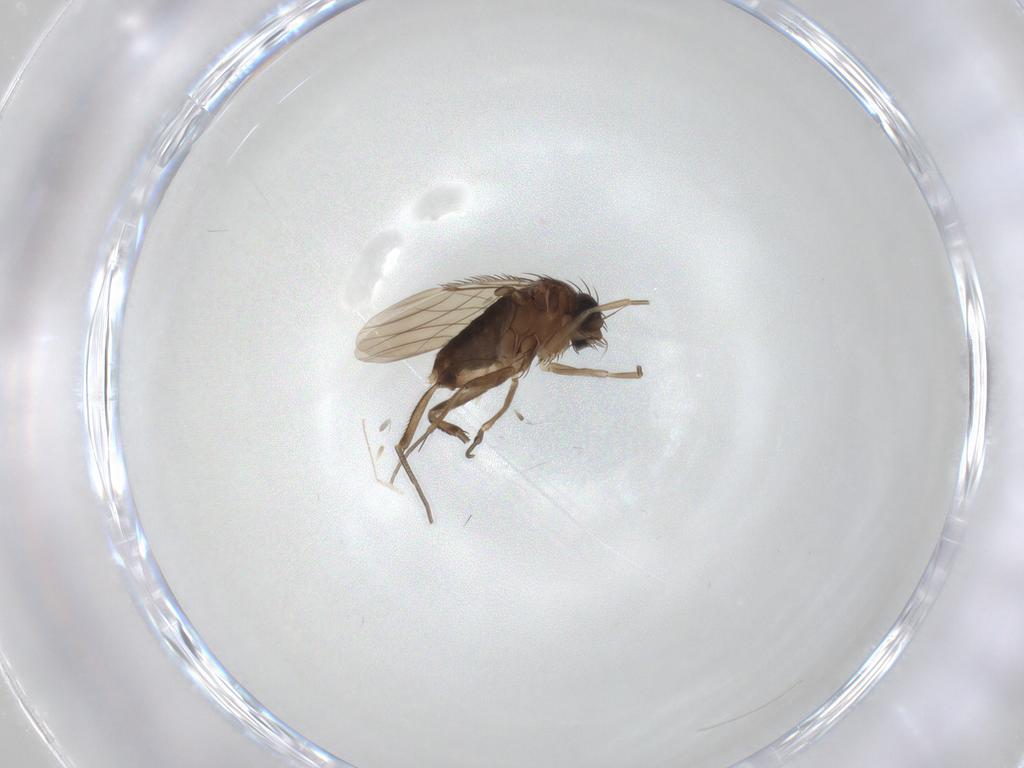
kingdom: Animalia
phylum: Arthropoda
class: Insecta
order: Diptera
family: Phoridae
